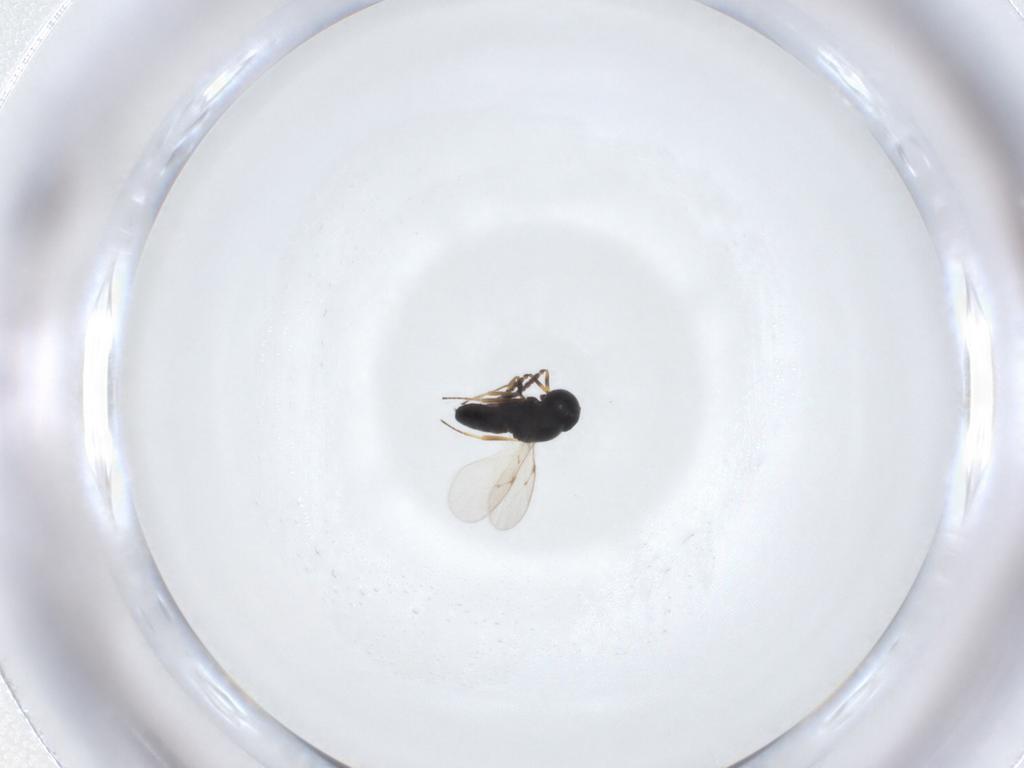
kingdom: Animalia
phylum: Arthropoda
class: Insecta
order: Hymenoptera
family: Scelionidae
